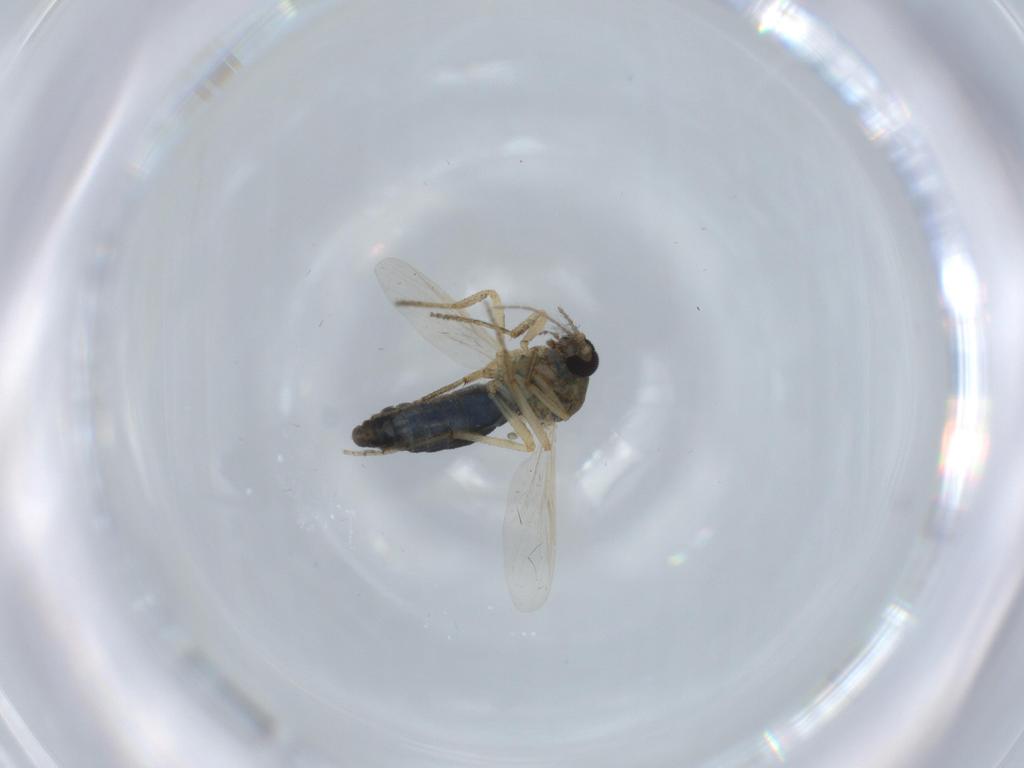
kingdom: Animalia
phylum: Arthropoda
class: Insecta
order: Diptera
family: Ceratopogonidae
